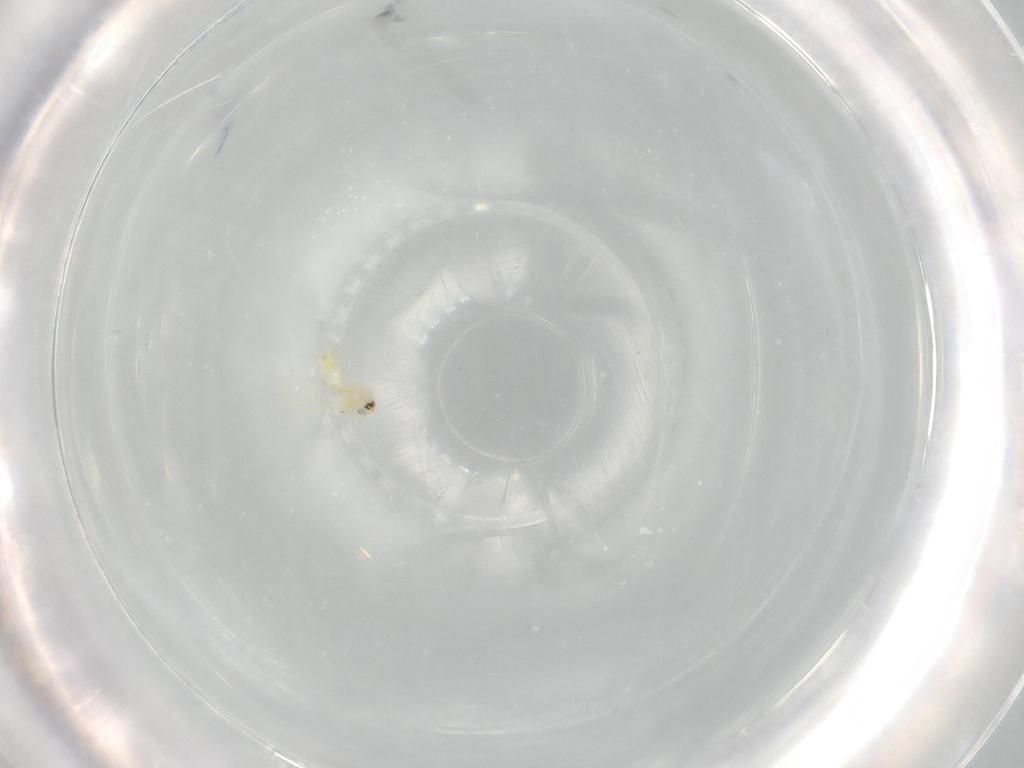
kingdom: Animalia
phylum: Arthropoda
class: Insecta
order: Hemiptera
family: Aleyrodidae
